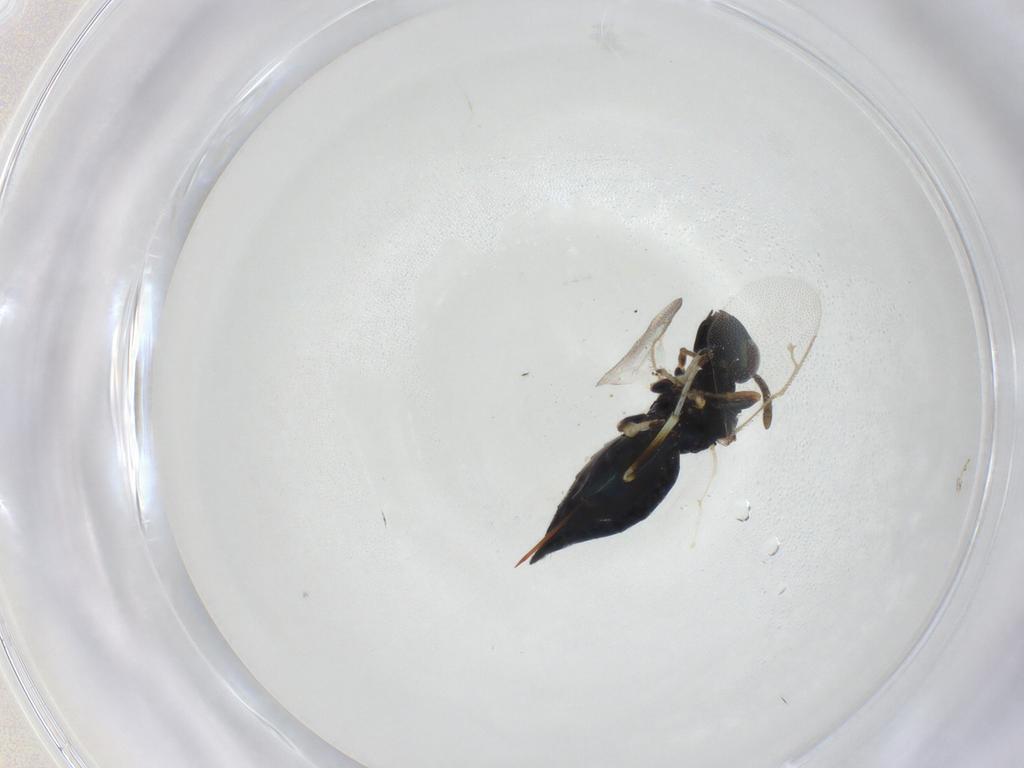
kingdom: Animalia
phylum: Arthropoda
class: Insecta
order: Hymenoptera
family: Pteromalidae
